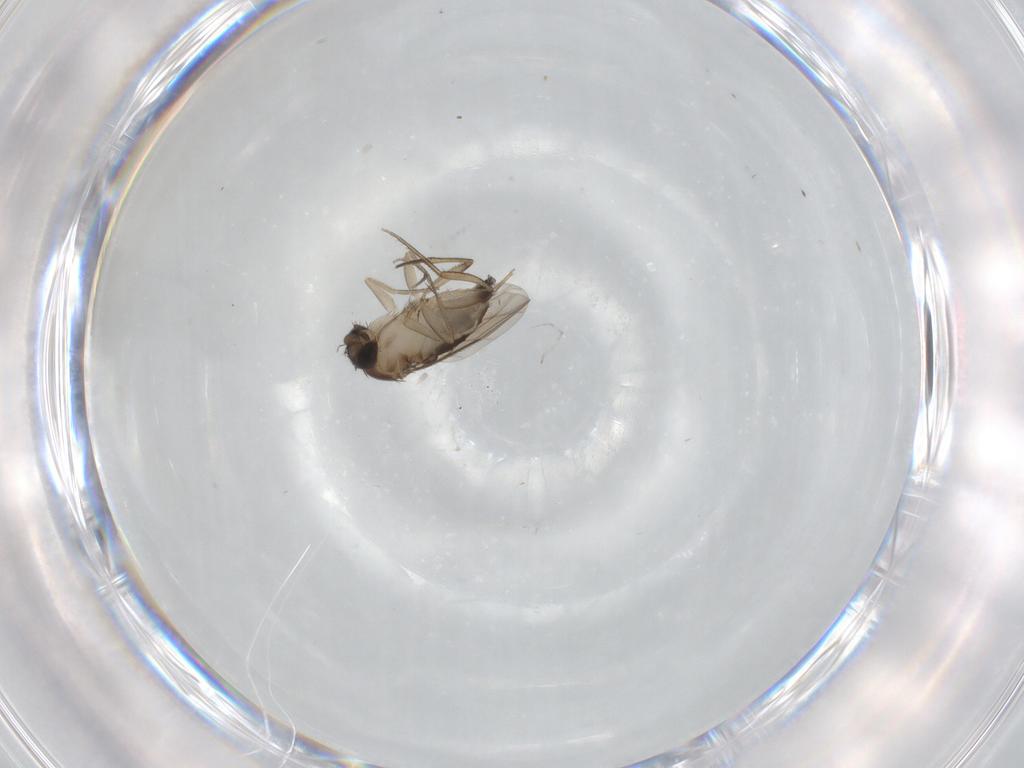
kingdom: Animalia
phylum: Arthropoda
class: Insecta
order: Diptera
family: Phoridae
